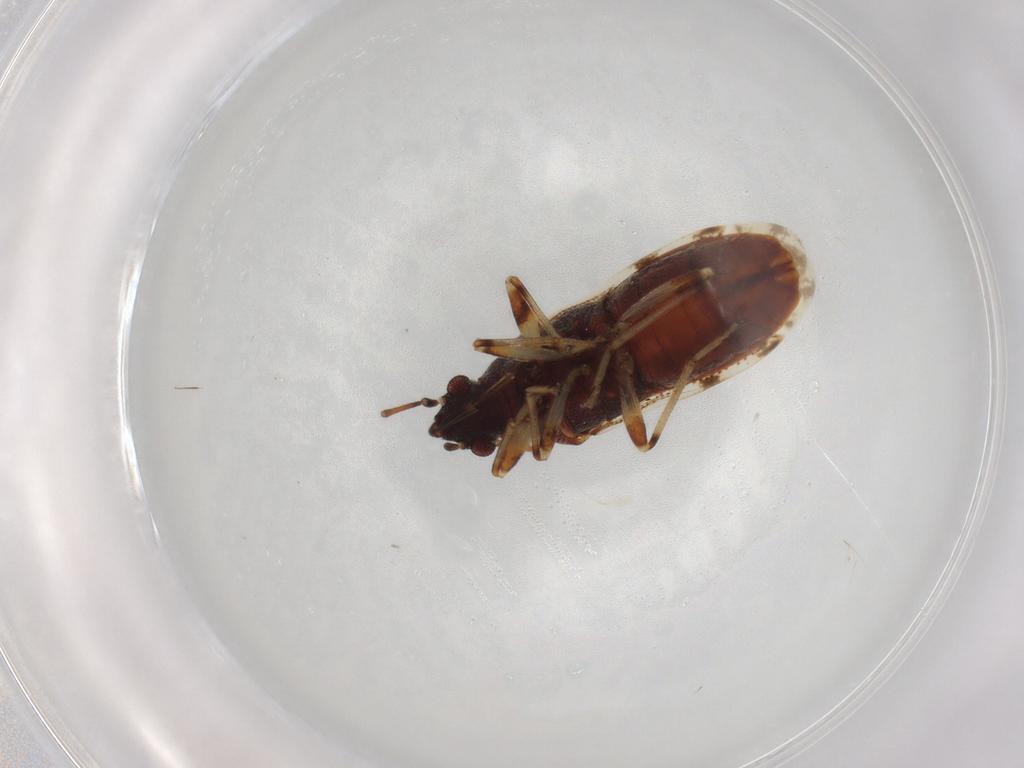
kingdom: Animalia
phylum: Arthropoda
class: Insecta
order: Hemiptera
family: Rhyparochromidae
